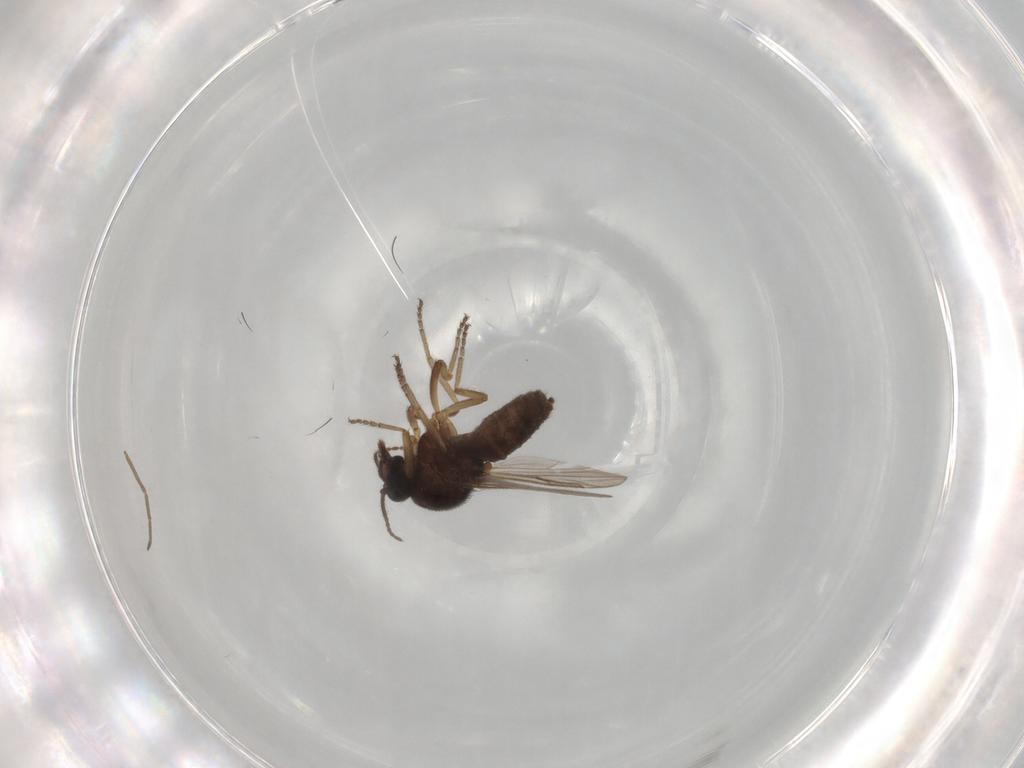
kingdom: Animalia
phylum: Arthropoda
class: Insecta
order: Diptera
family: Ceratopogonidae
